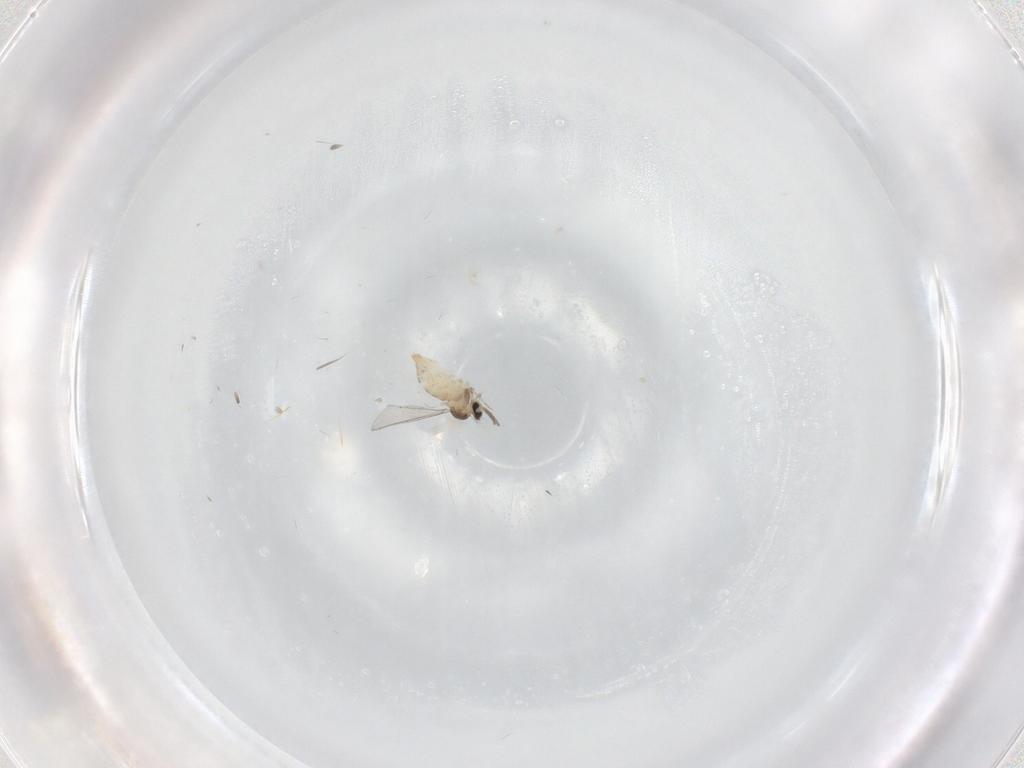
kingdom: Animalia
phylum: Arthropoda
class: Insecta
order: Diptera
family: Cecidomyiidae
